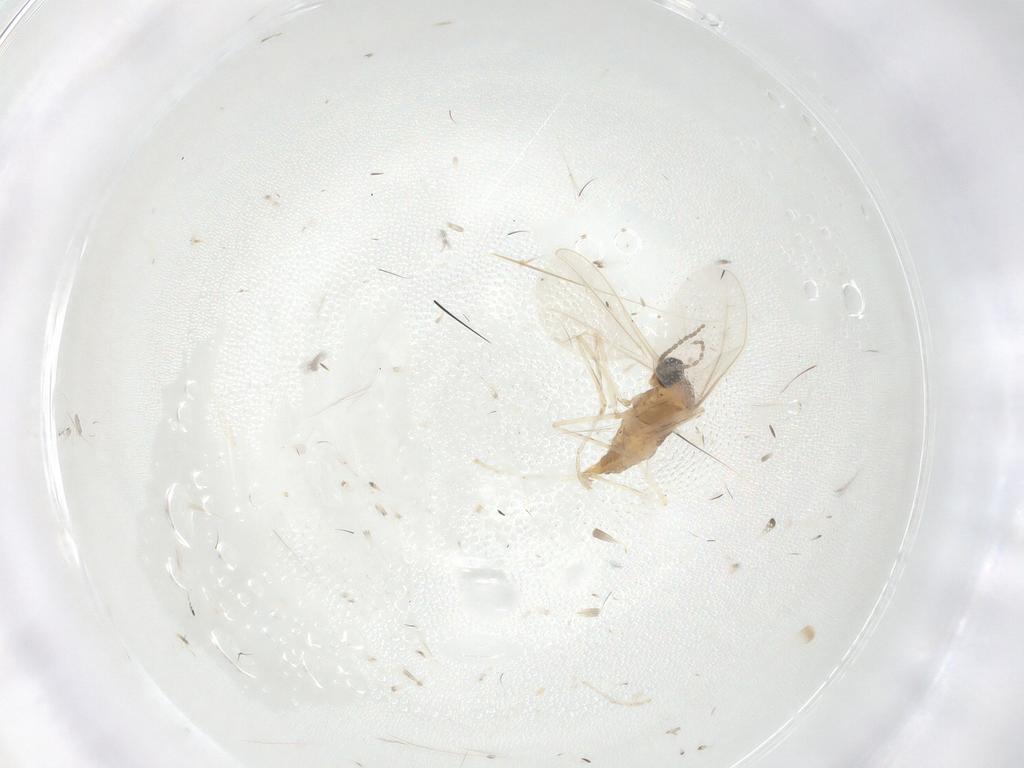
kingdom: Animalia
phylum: Arthropoda
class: Insecta
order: Diptera
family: Cecidomyiidae
